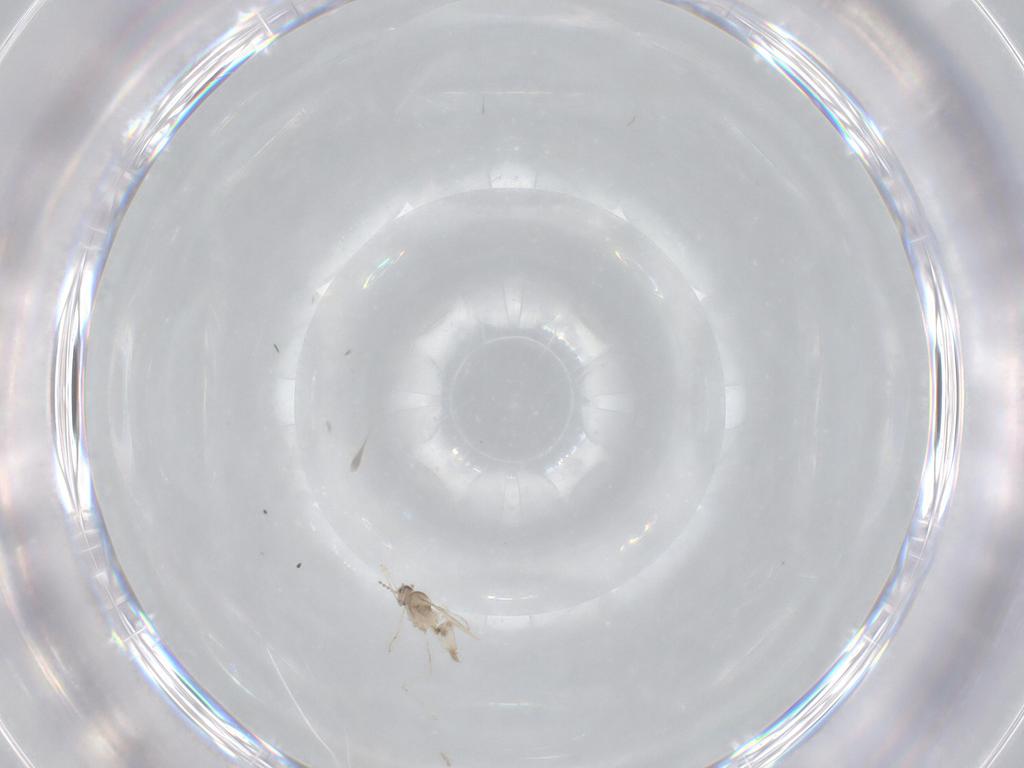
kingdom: Animalia
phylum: Arthropoda
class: Insecta
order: Diptera
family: Cecidomyiidae
